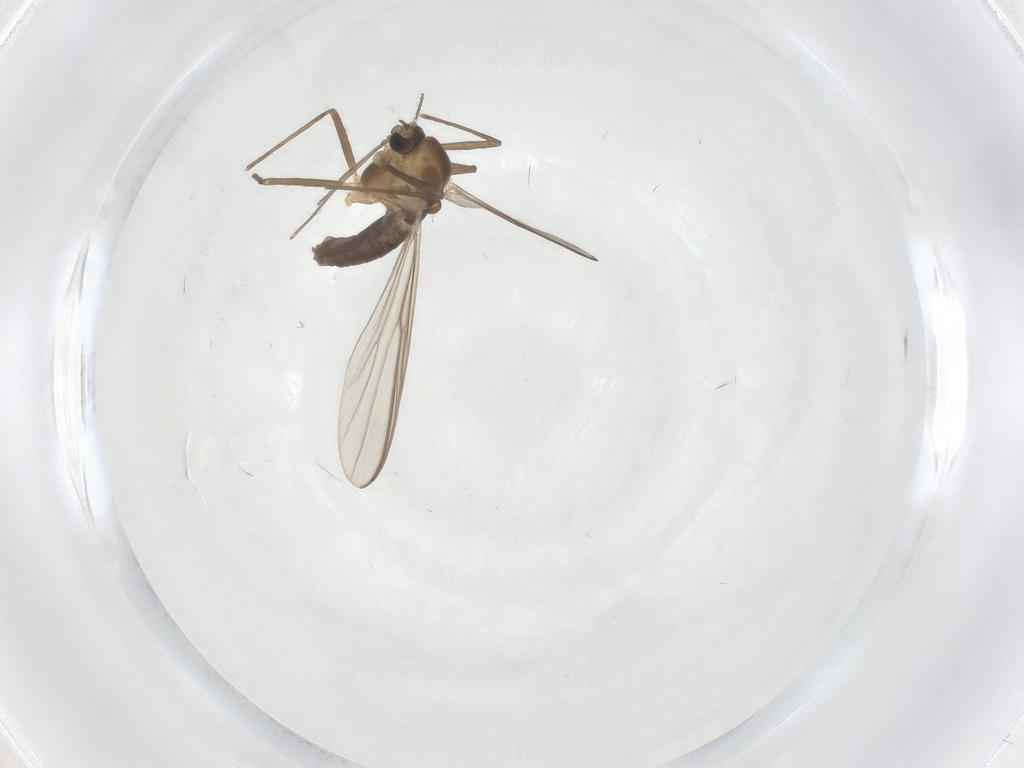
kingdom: Animalia
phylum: Arthropoda
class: Insecta
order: Diptera
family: Chironomidae
